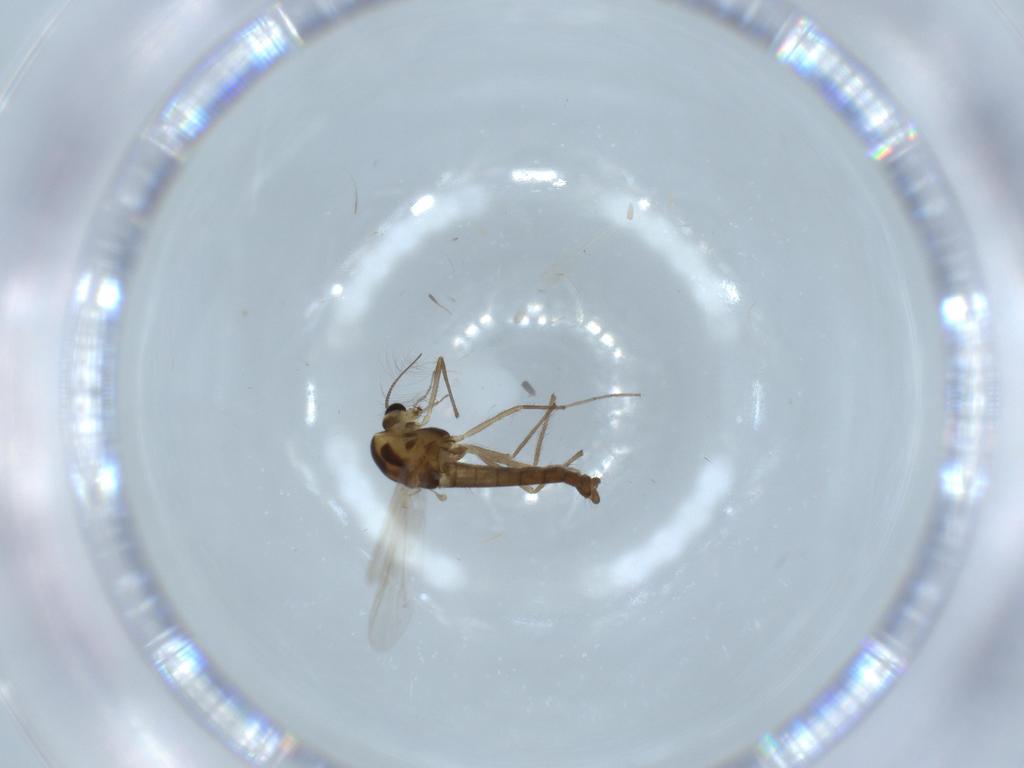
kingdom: Animalia
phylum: Arthropoda
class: Insecta
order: Diptera
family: Chironomidae
